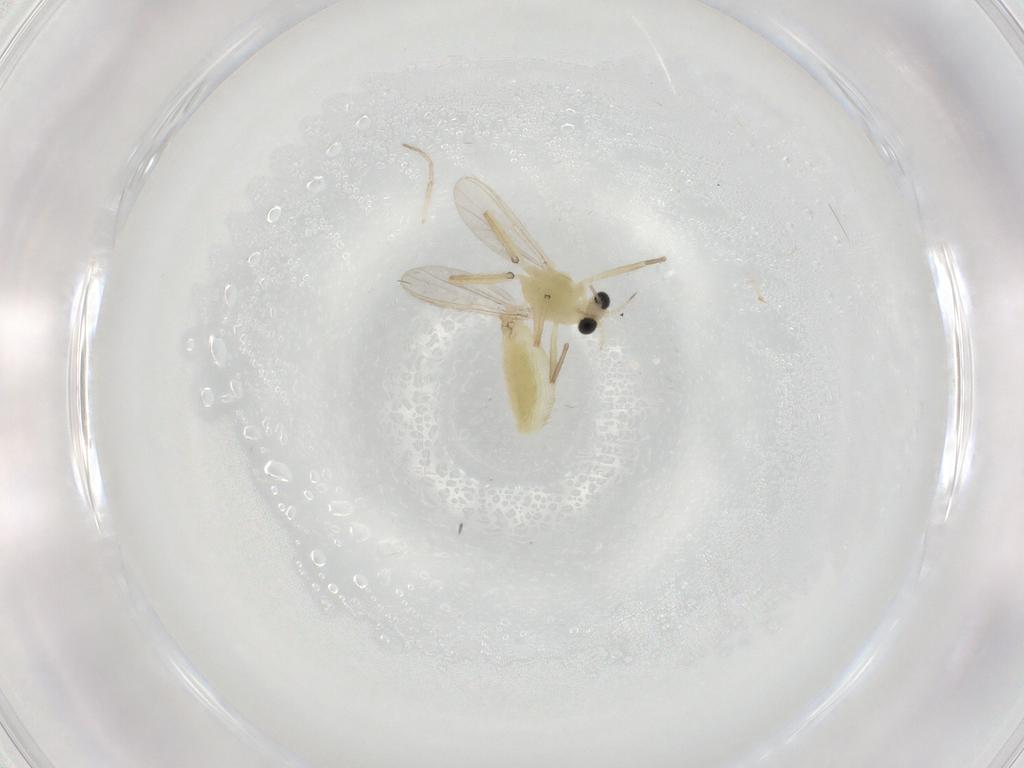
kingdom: Animalia
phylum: Arthropoda
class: Insecta
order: Diptera
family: Chironomidae
